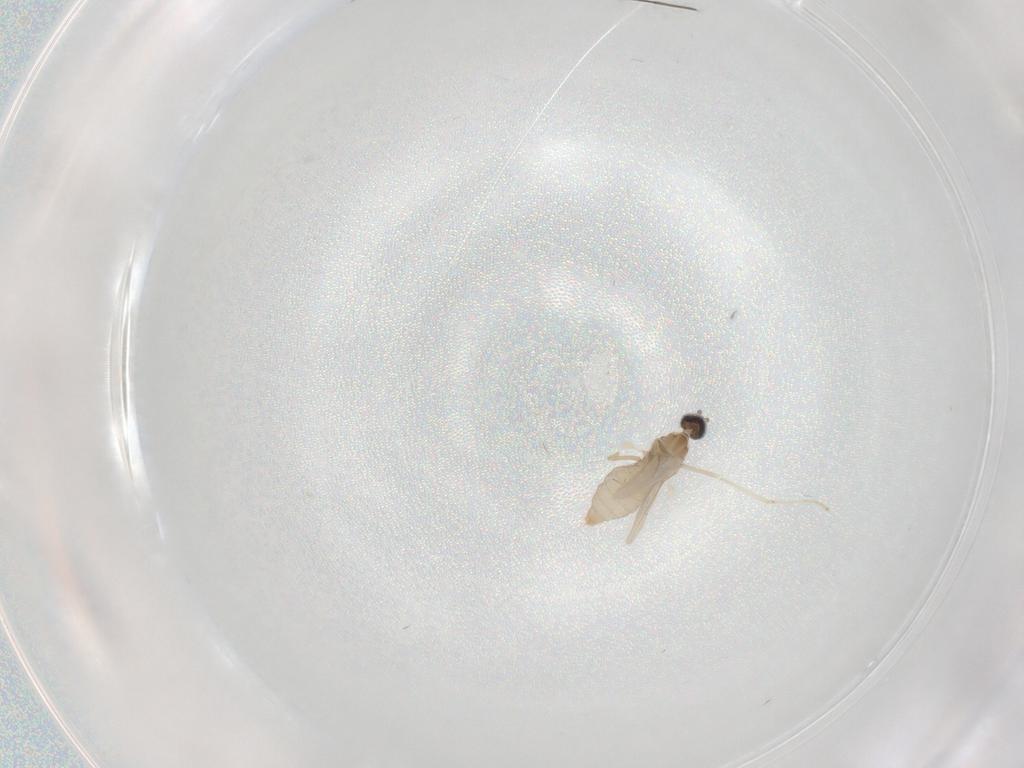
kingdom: Animalia
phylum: Arthropoda
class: Insecta
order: Diptera
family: Cecidomyiidae
